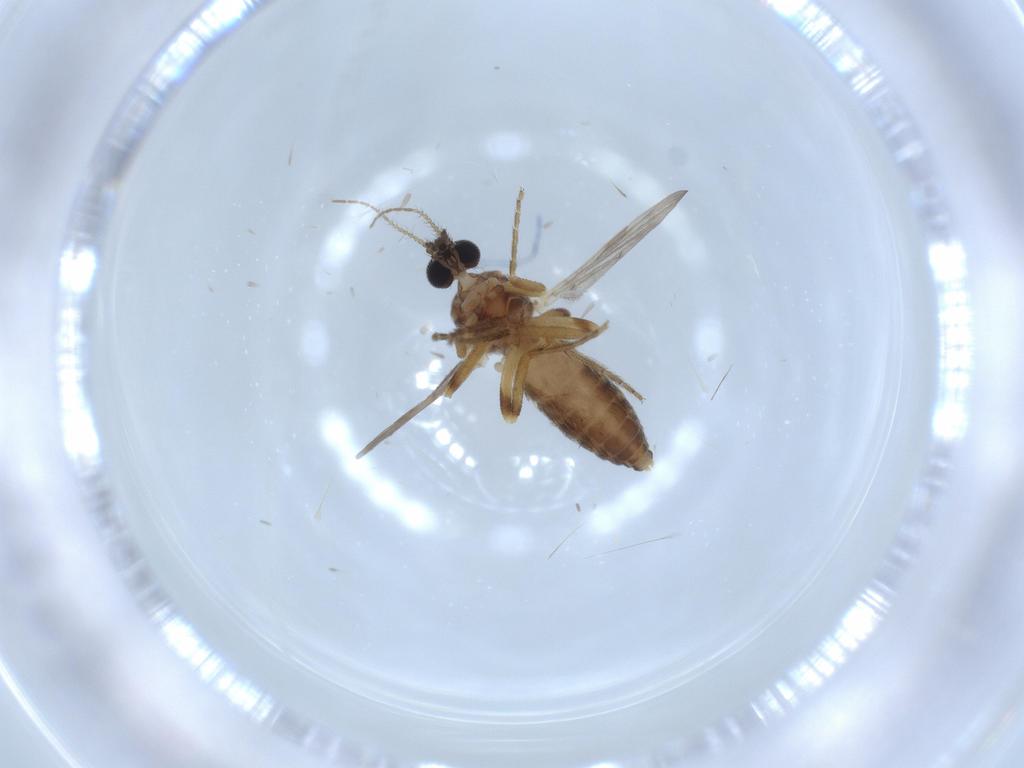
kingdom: Animalia
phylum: Arthropoda
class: Insecta
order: Diptera
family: Ceratopogonidae
